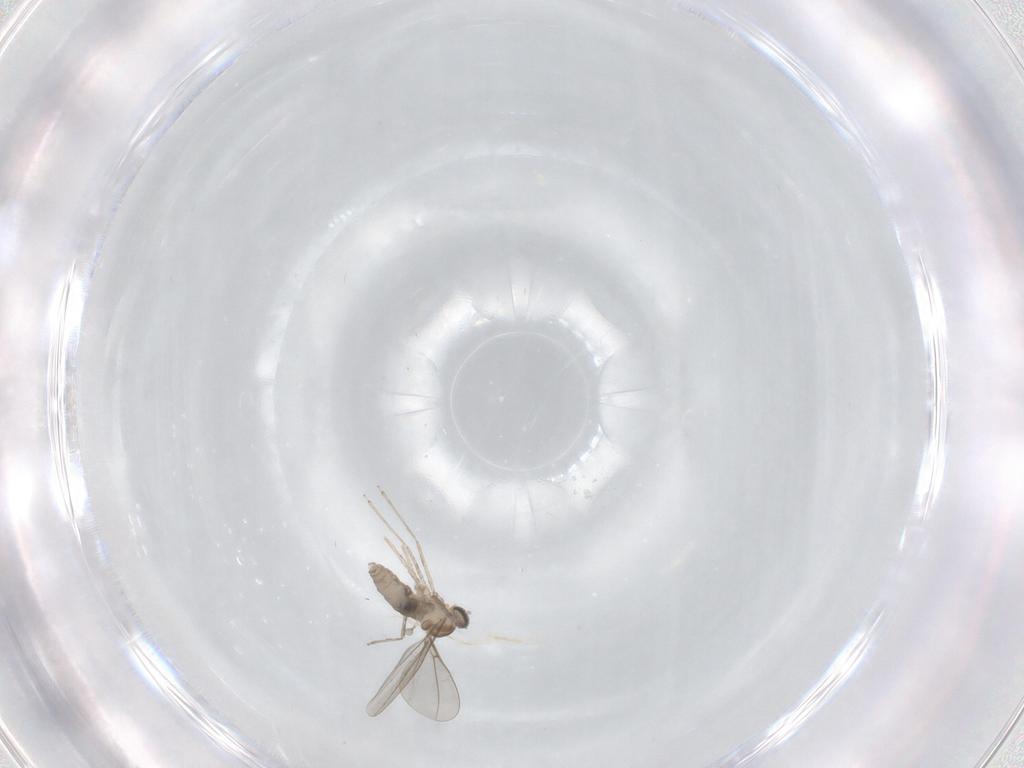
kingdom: Animalia
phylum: Arthropoda
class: Insecta
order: Diptera
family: Cecidomyiidae
